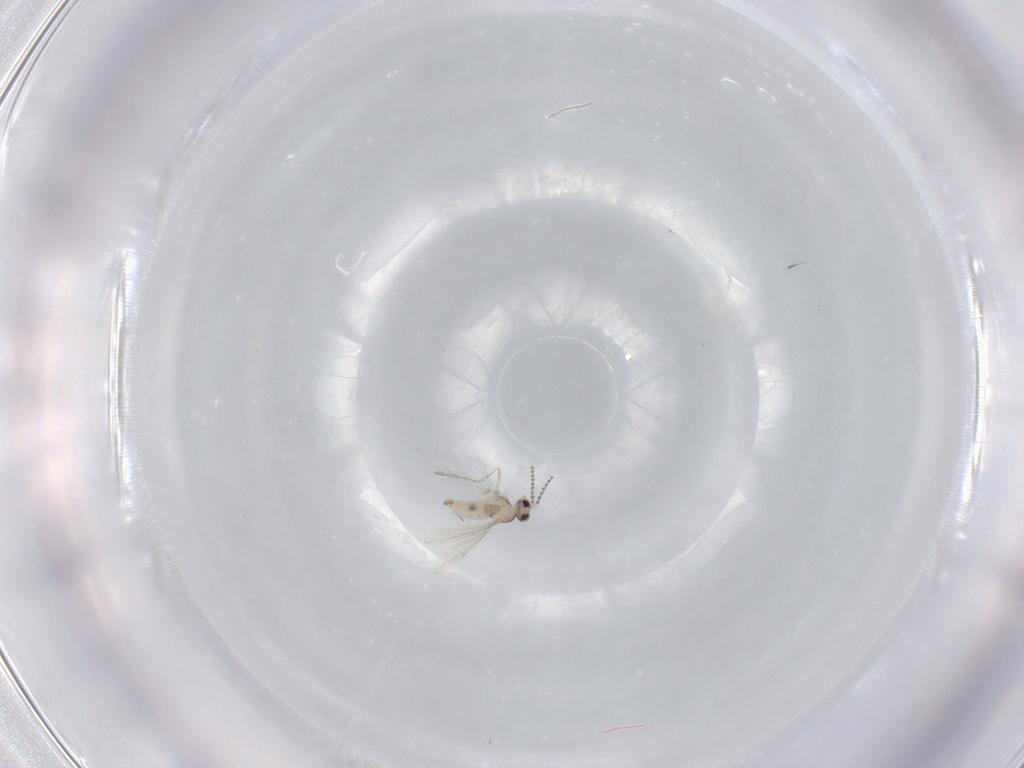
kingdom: Animalia
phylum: Arthropoda
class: Insecta
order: Diptera
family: Cecidomyiidae
